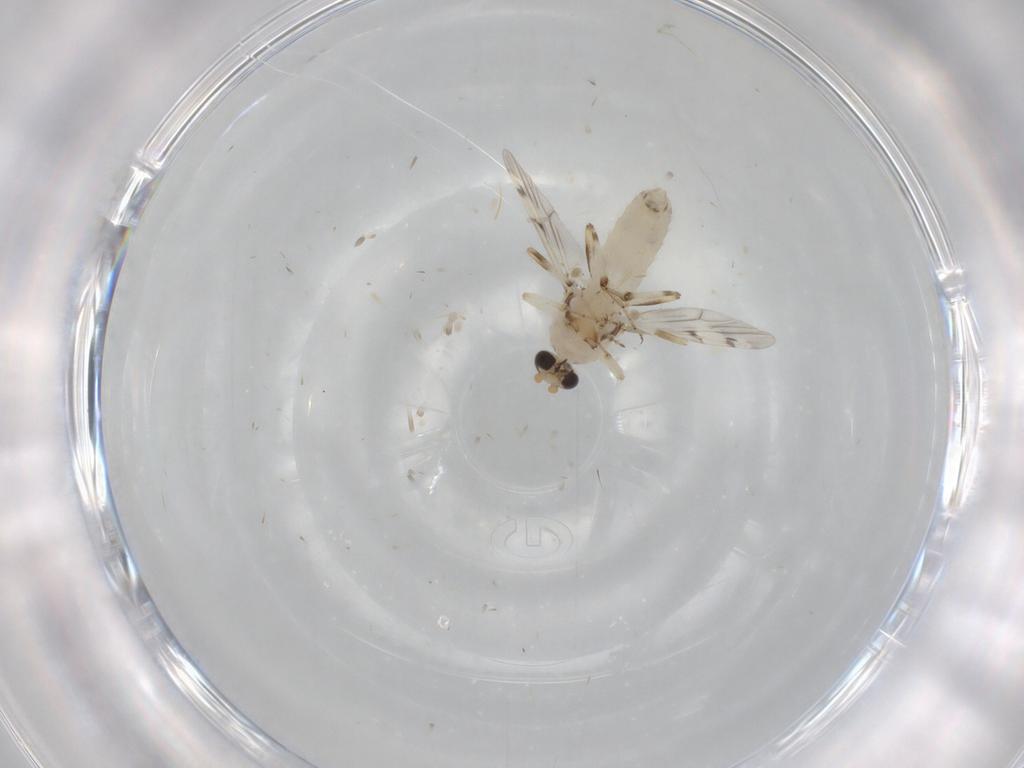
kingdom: Animalia
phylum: Arthropoda
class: Insecta
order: Diptera
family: Ceratopogonidae
